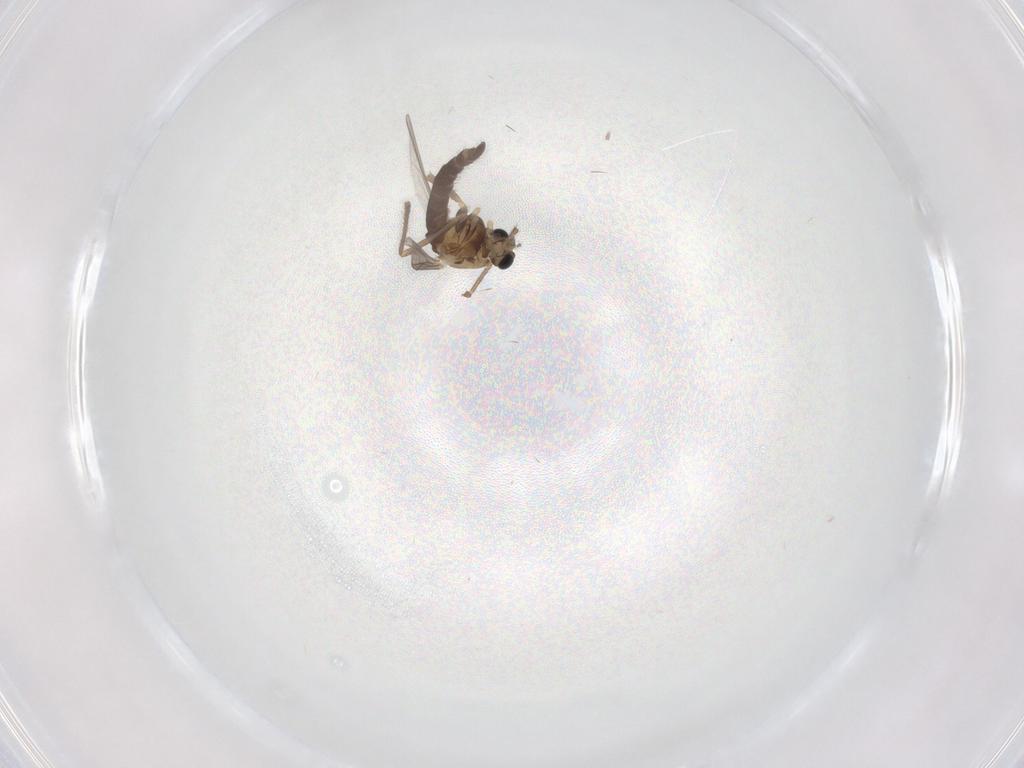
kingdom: Animalia
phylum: Arthropoda
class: Insecta
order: Diptera
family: Chironomidae
